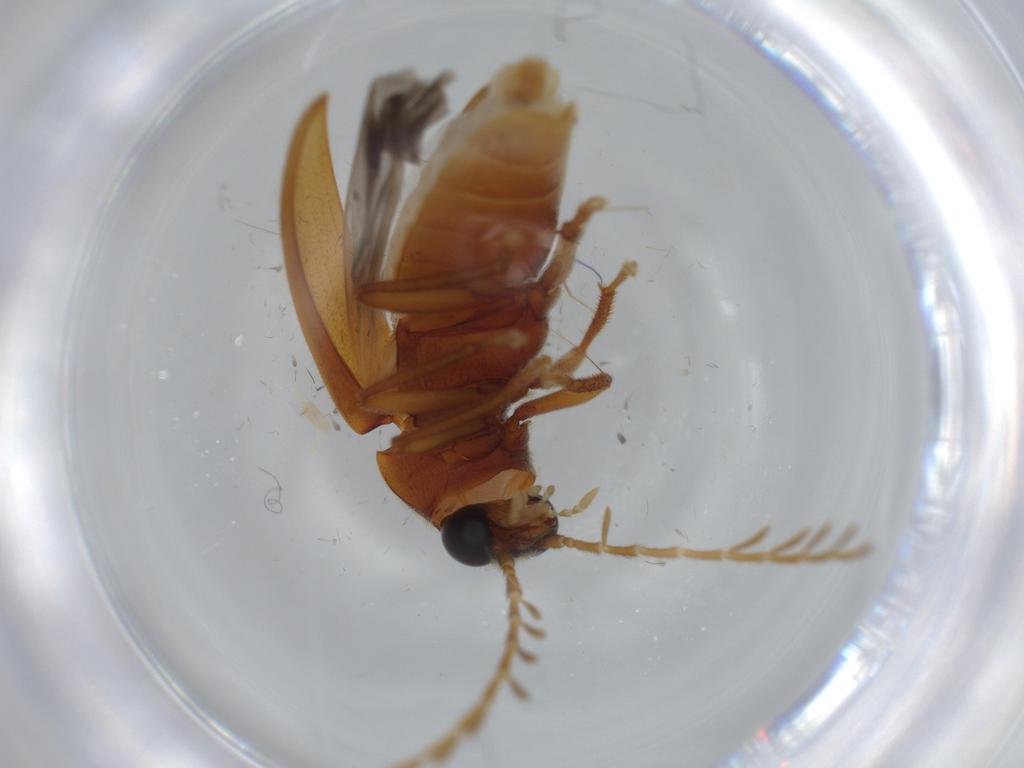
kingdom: Animalia
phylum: Arthropoda
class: Insecta
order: Coleoptera
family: Ptilodactylidae
